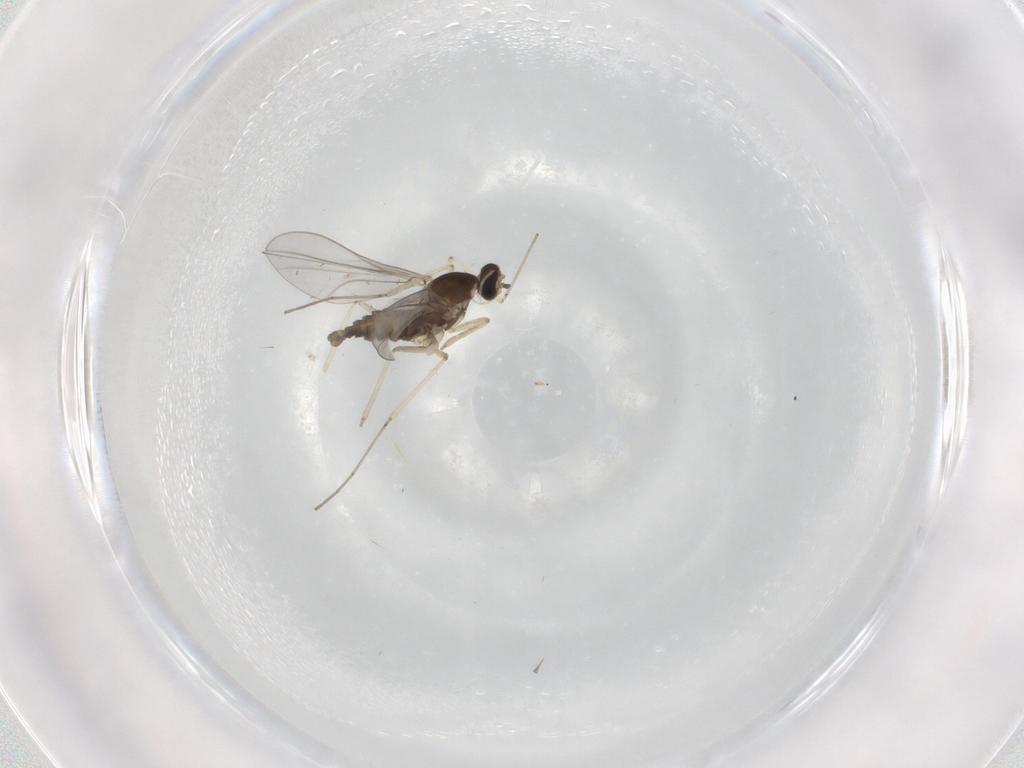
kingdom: Animalia
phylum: Arthropoda
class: Insecta
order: Diptera
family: Cecidomyiidae
